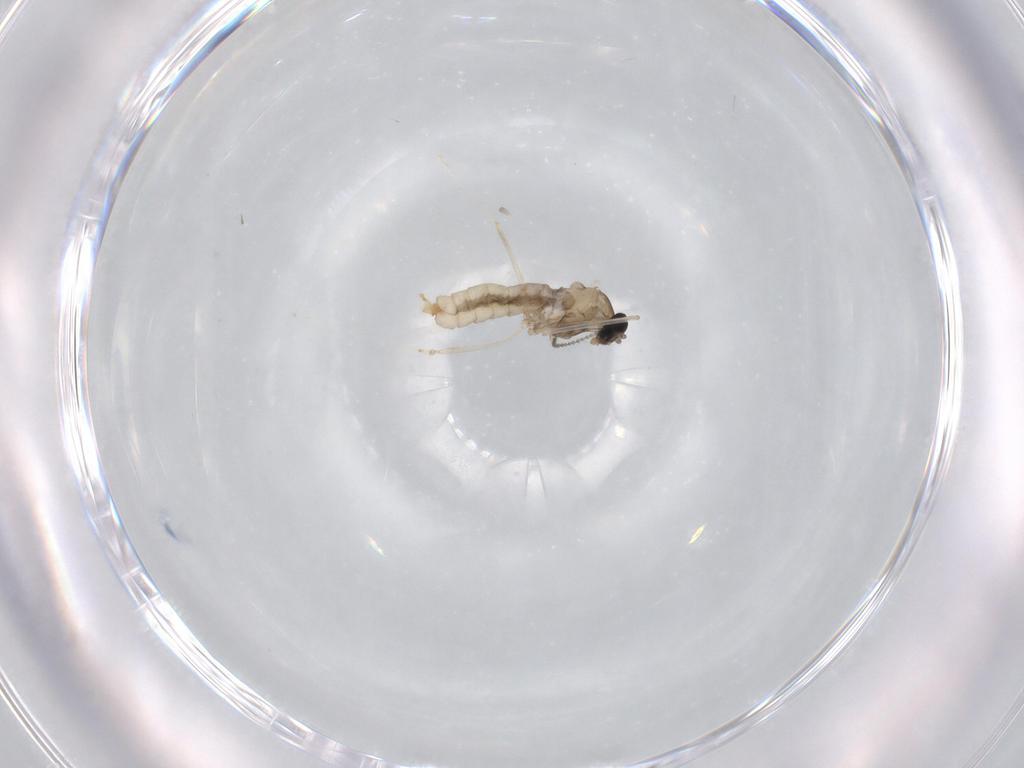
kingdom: Animalia
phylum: Arthropoda
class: Insecta
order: Diptera
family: Cecidomyiidae
